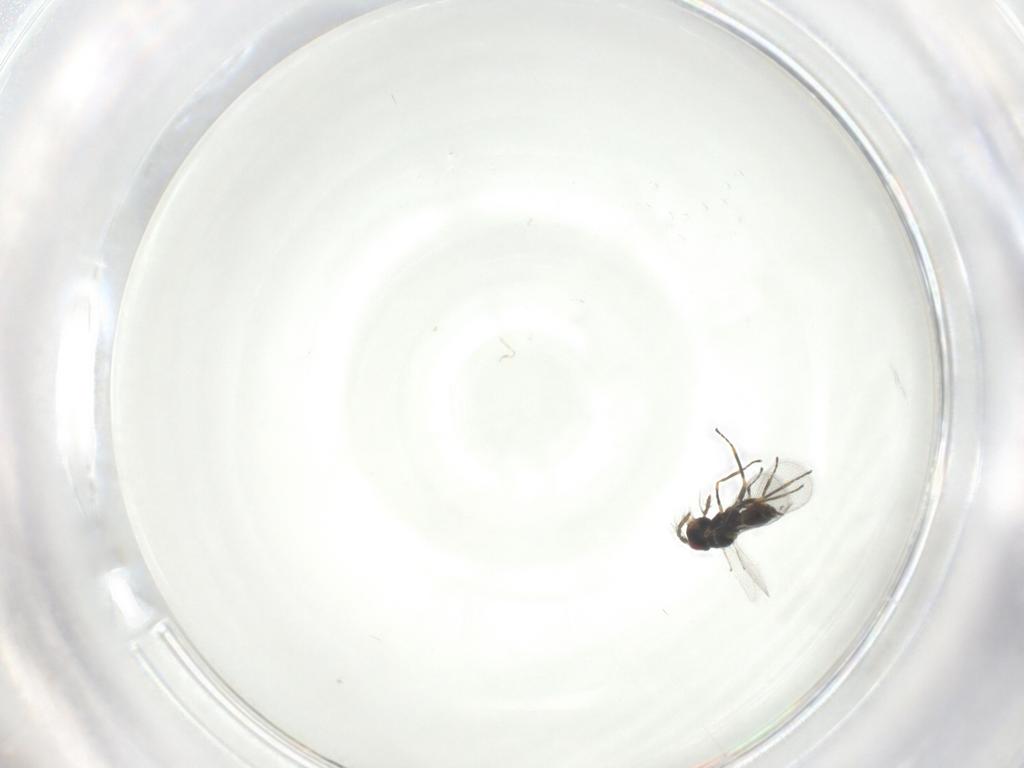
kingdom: Animalia
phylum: Arthropoda
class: Insecta
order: Hymenoptera
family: Eulophidae
